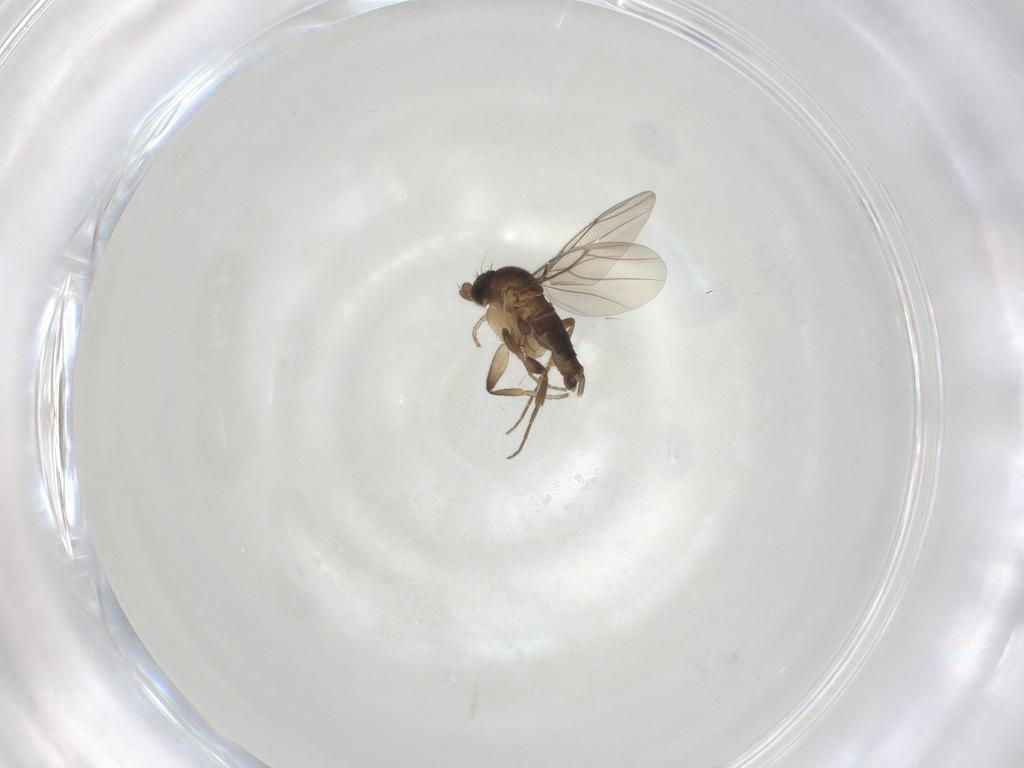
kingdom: Animalia
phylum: Arthropoda
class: Insecta
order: Diptera
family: Phoridae
